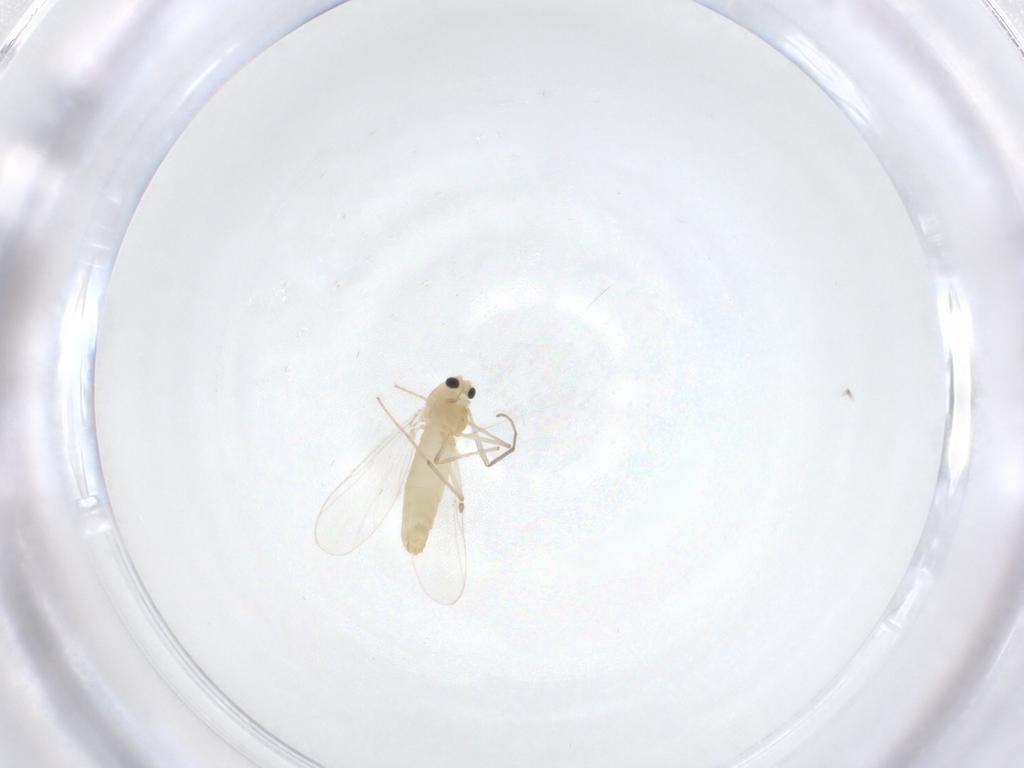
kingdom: Animalia
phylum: Arthropoda
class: Insecta
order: Diptera
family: Chironomidae
